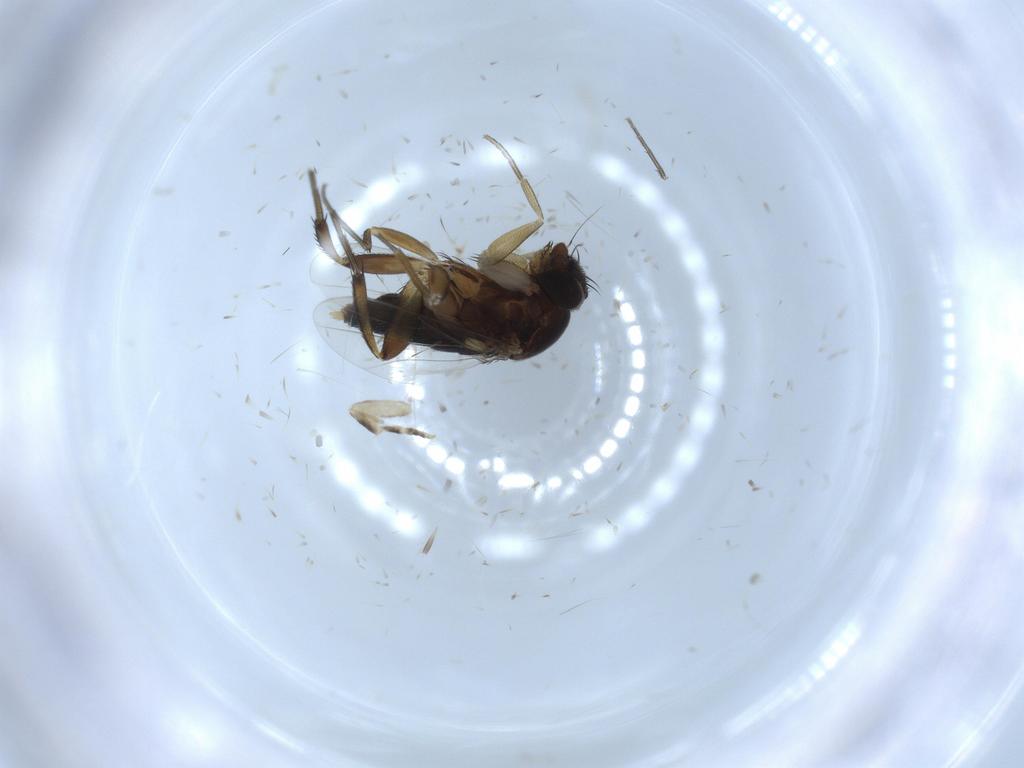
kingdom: Animalia
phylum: Arthropoda
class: Insecta
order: Diptera
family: Phoridae
